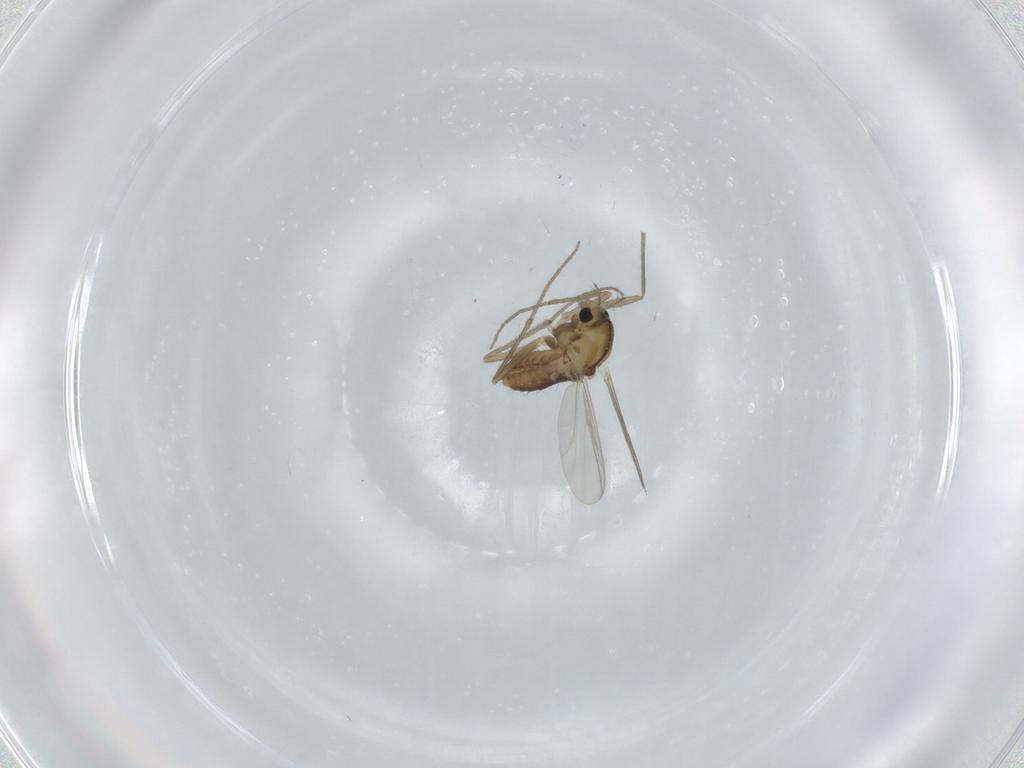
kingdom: Animalia
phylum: Arthropoda
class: Insecta
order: Diptera
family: Chironomidae
